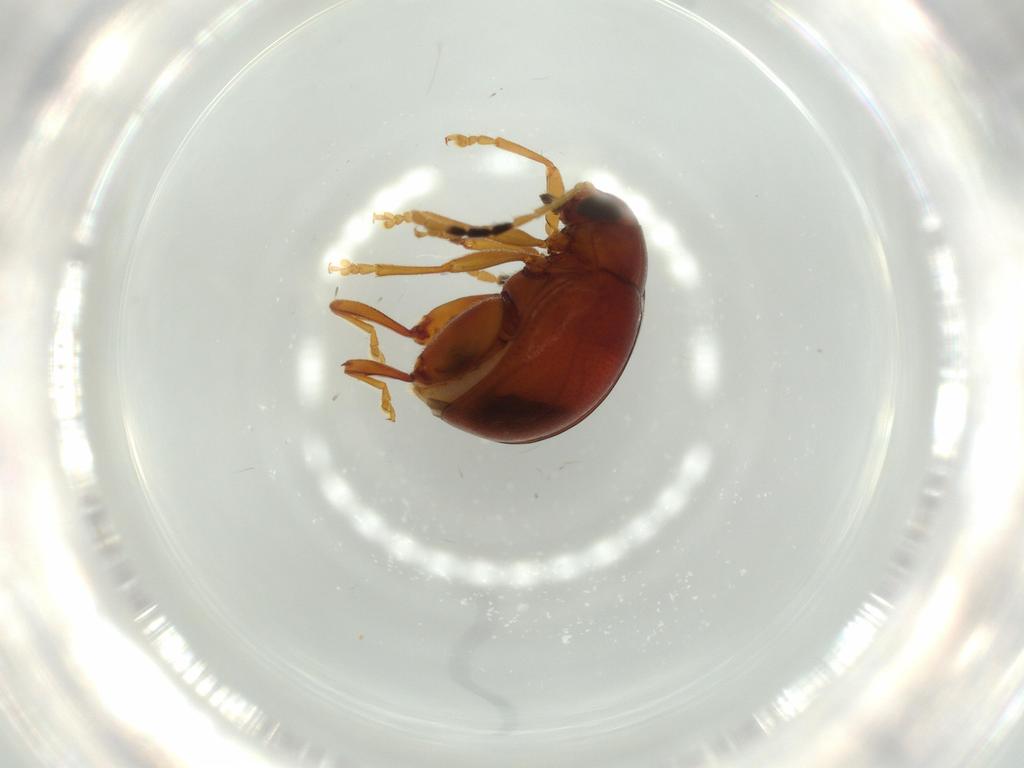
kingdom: Animalia
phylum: Arthropoda
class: Insecta
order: Coleoptera
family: Chrysomelidae
